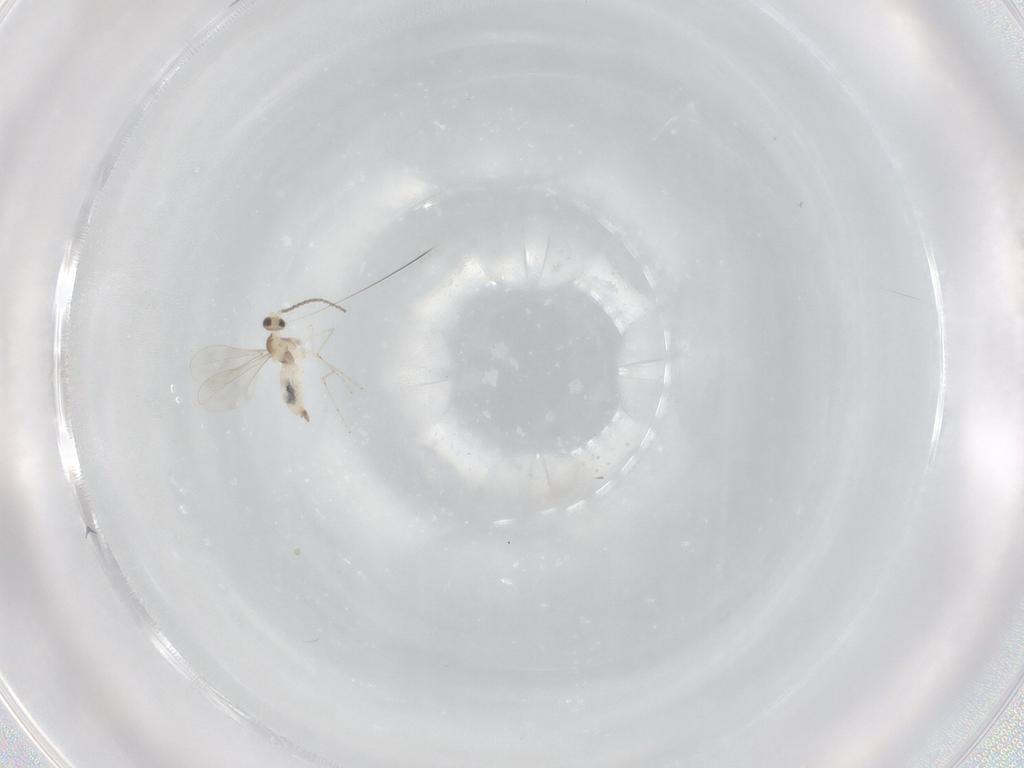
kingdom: Animalia
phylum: Arthropoda
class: Insecta
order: Diptera
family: Cecidomyiidae
